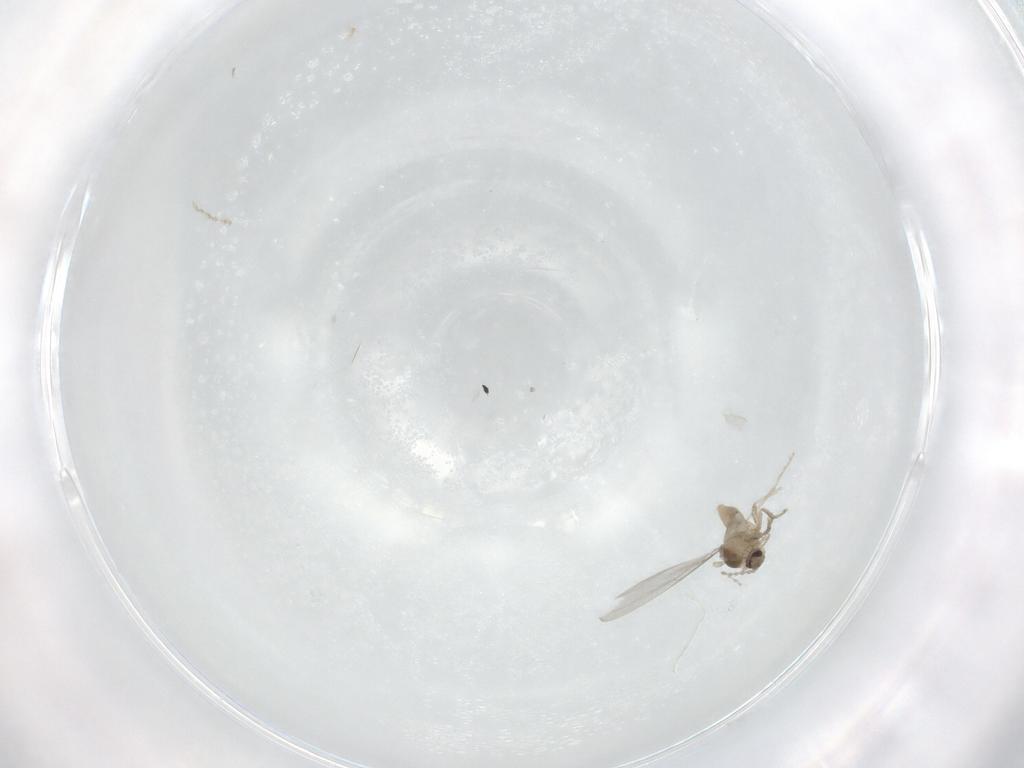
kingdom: Animalia
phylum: Arthropoda
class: Insecta
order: Diptera
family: Cecidomyiidae
